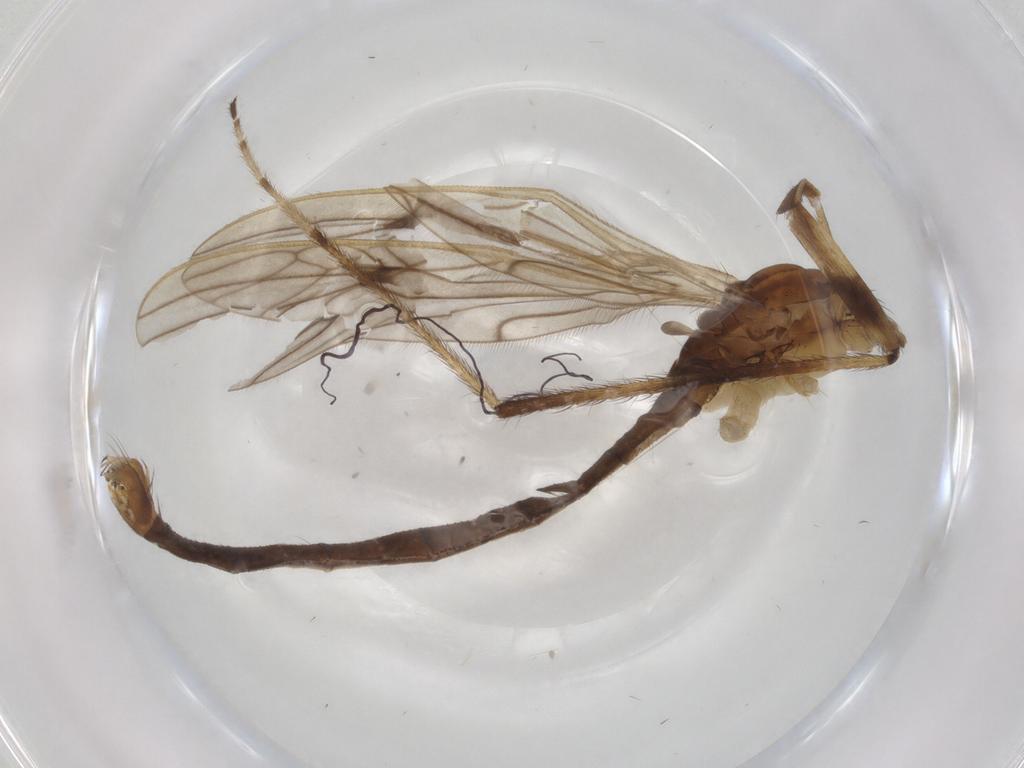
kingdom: Animalia
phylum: Arthropoda
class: Insecta
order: Diptera
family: Limoniidae
